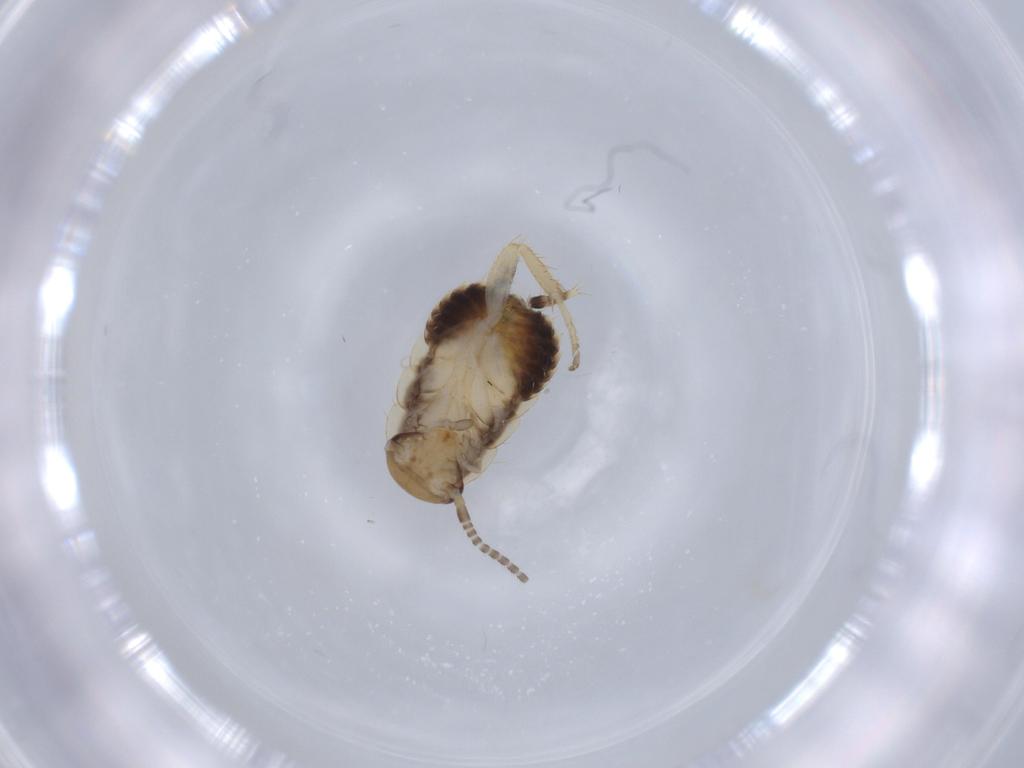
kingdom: Animalia
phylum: Arthropoda
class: Insecta
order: Blattodea
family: Ectobiidae
